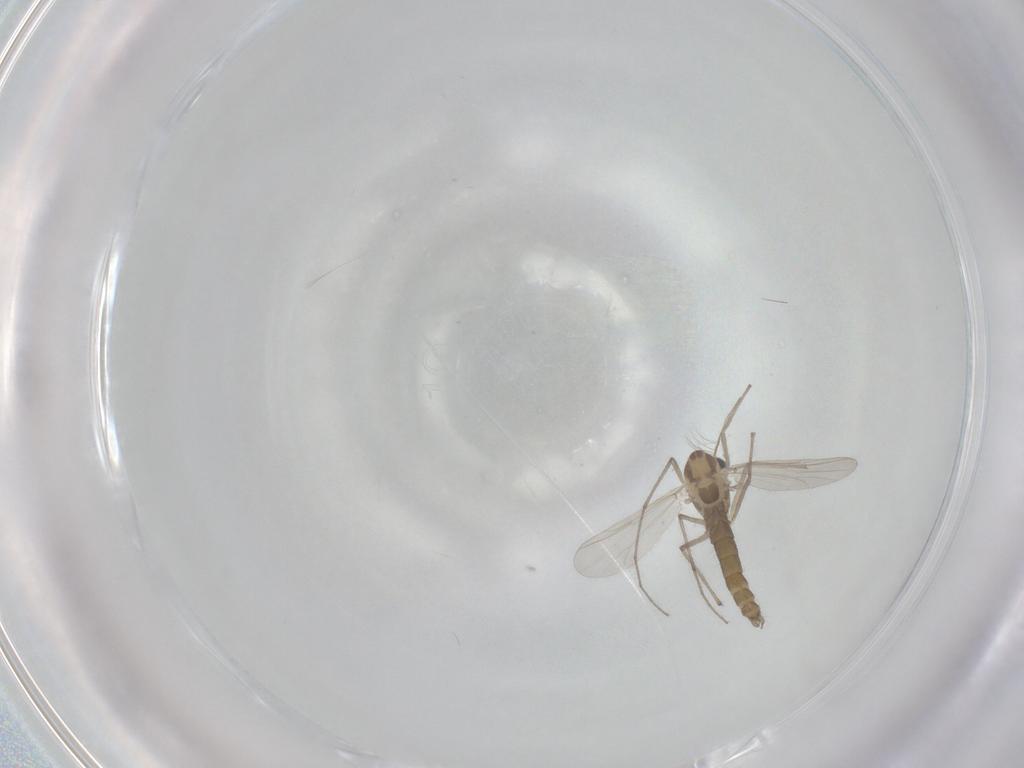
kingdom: Animalia
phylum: Arthropoda
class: Insecta
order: Diptera
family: Chironomidae
